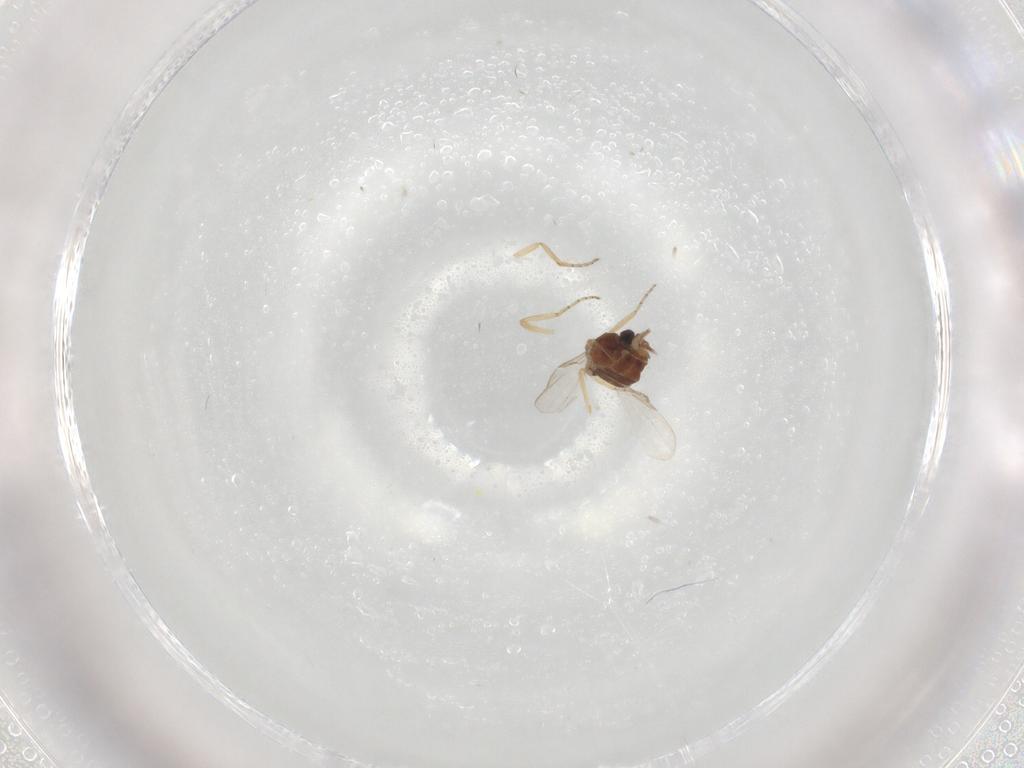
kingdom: Animalia
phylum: Arthropoda
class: Insecta
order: Diptera
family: Ceratopogonidae
